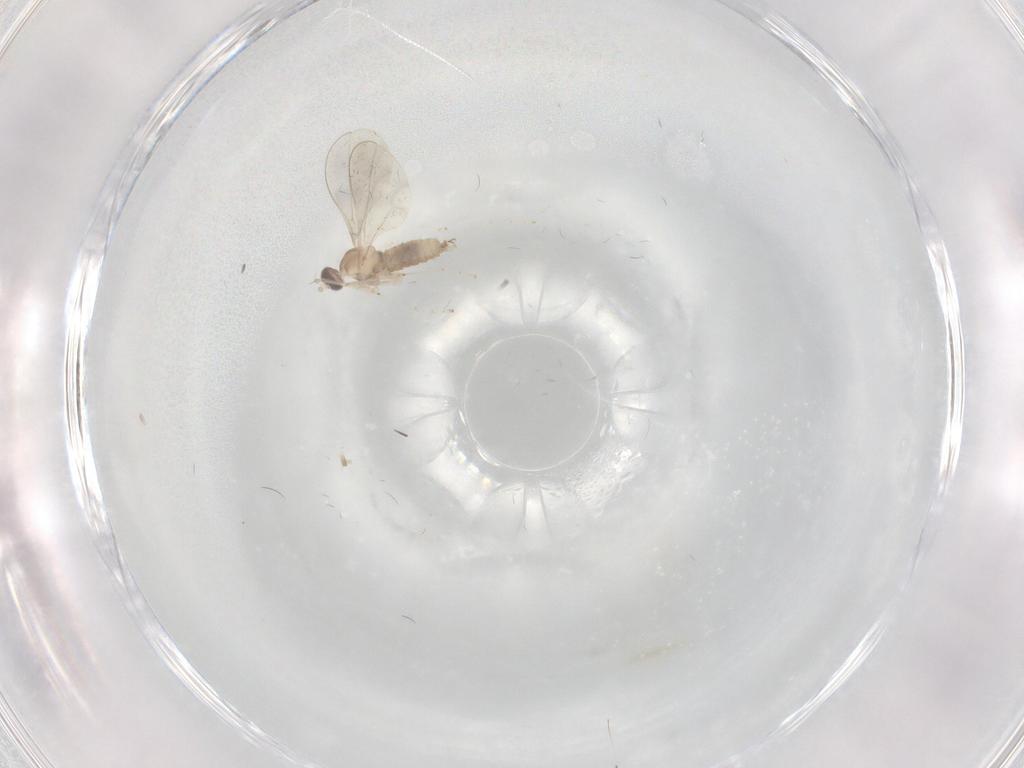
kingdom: Animalia
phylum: Arthropoda
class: Insecta
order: Diptera
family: Cecidomyiidae
